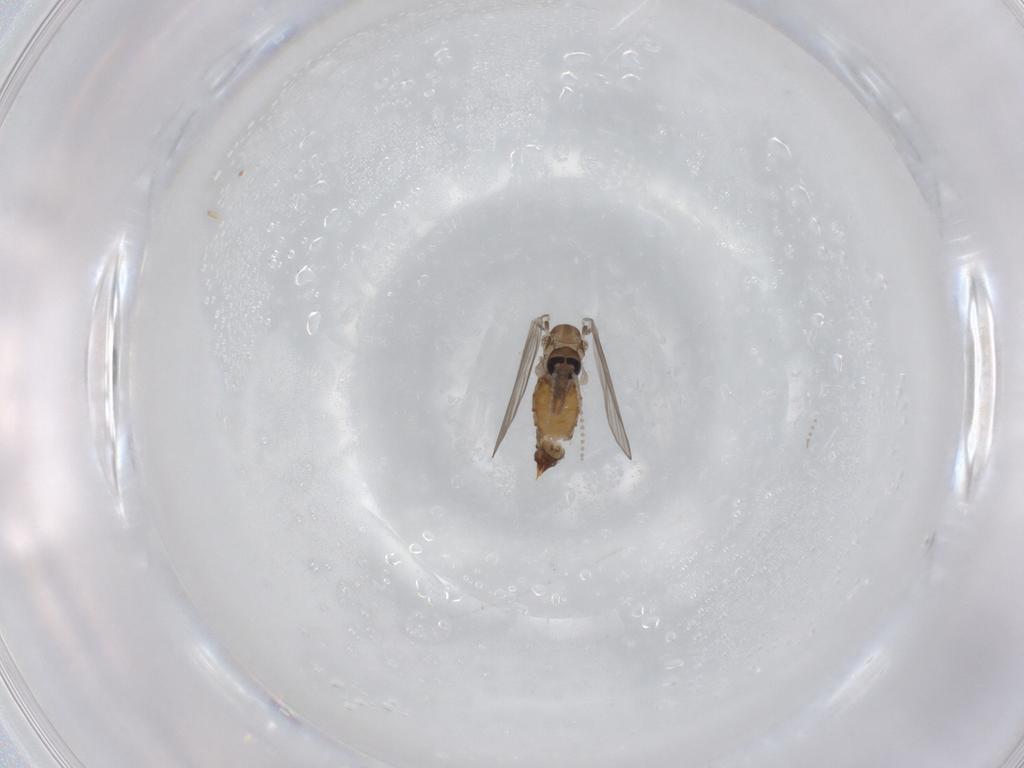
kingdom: Animalia
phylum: Arthropoda
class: Insecta
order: Diptera
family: Psychodidae
